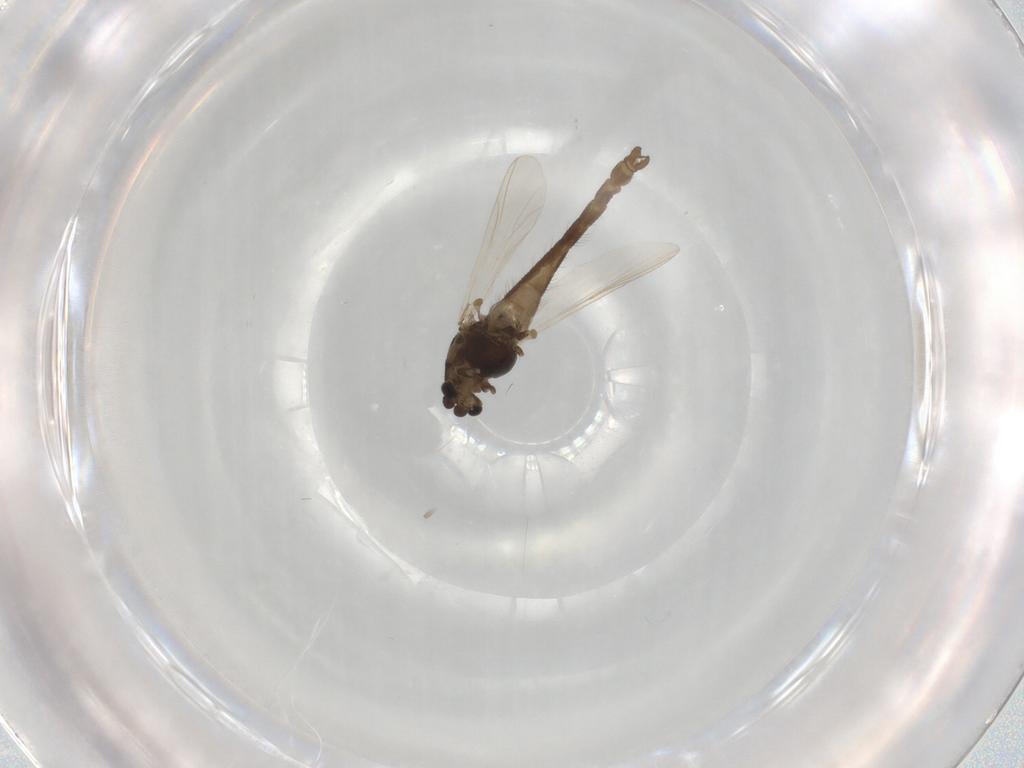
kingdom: Animalia
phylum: Arthropoda
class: Insecta
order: Diptera
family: Chironomidae
